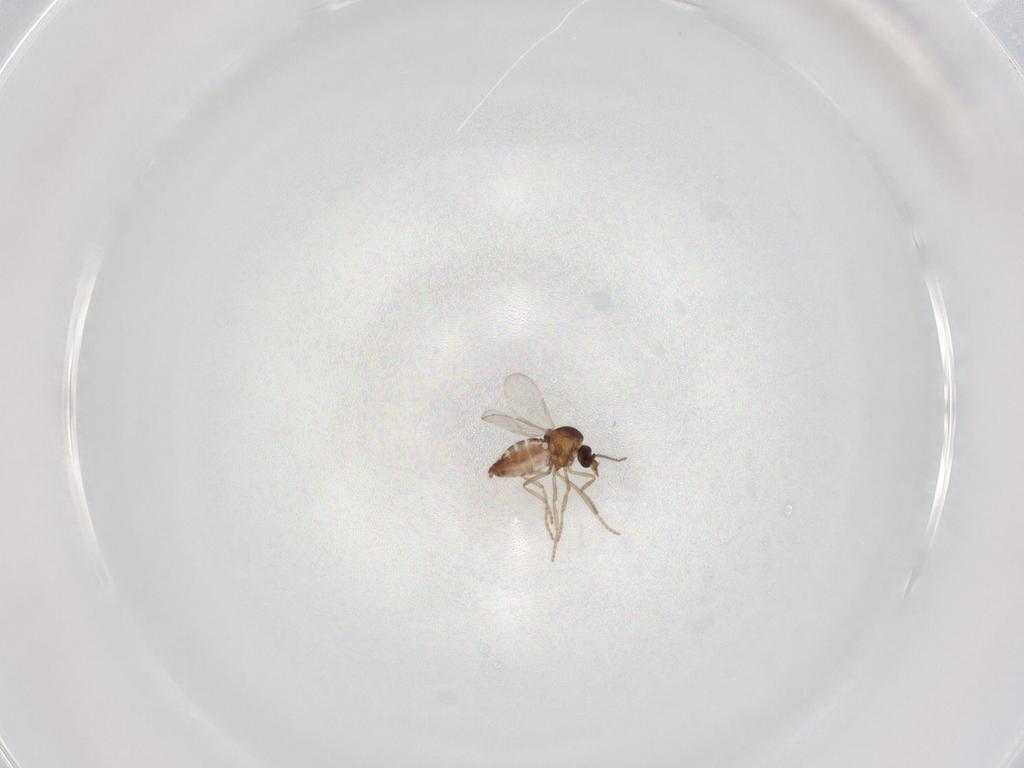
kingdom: Animalia
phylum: Arthropoda
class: Insecta
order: Diptera
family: Ceratopogonidae
